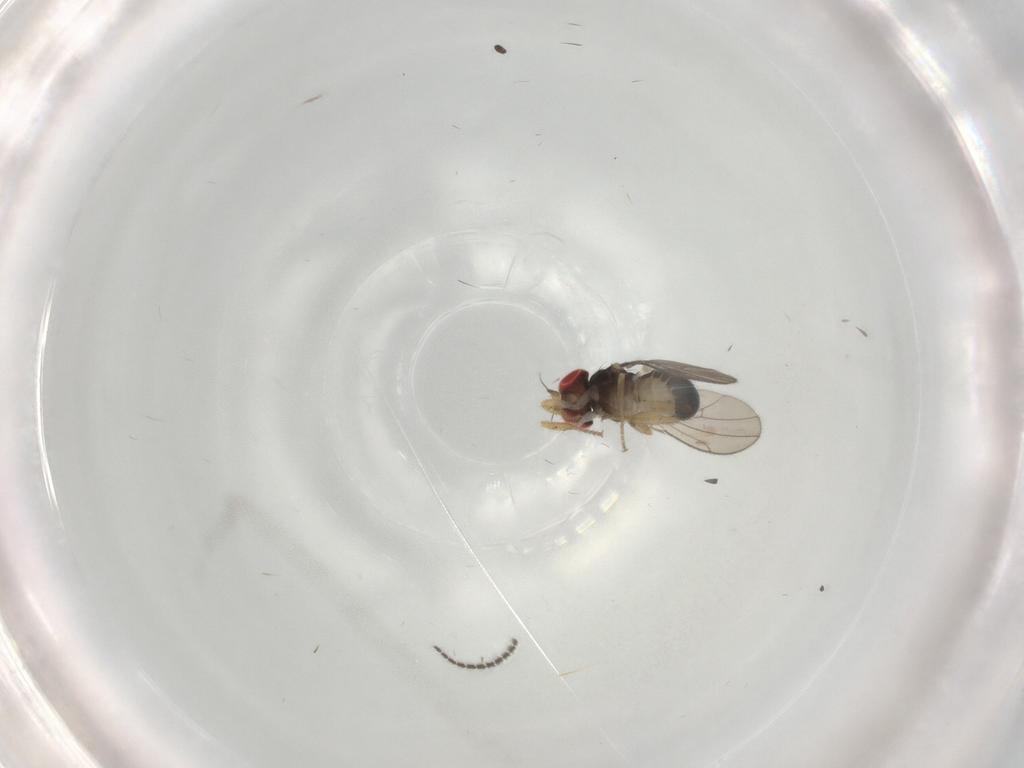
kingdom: Animalia
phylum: Arthropoda
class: Insecta
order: Diptera
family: Drosophilidae
